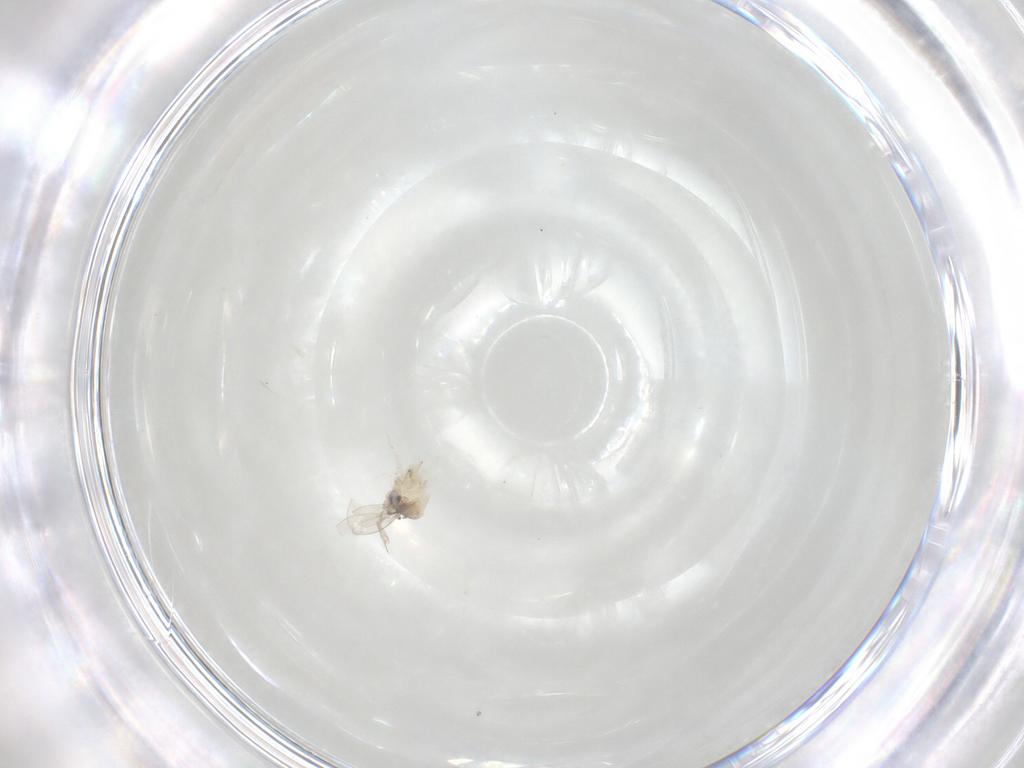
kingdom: Animalia
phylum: Arthropoda
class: Insecta
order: Diptera
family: Cecidomyiidae
